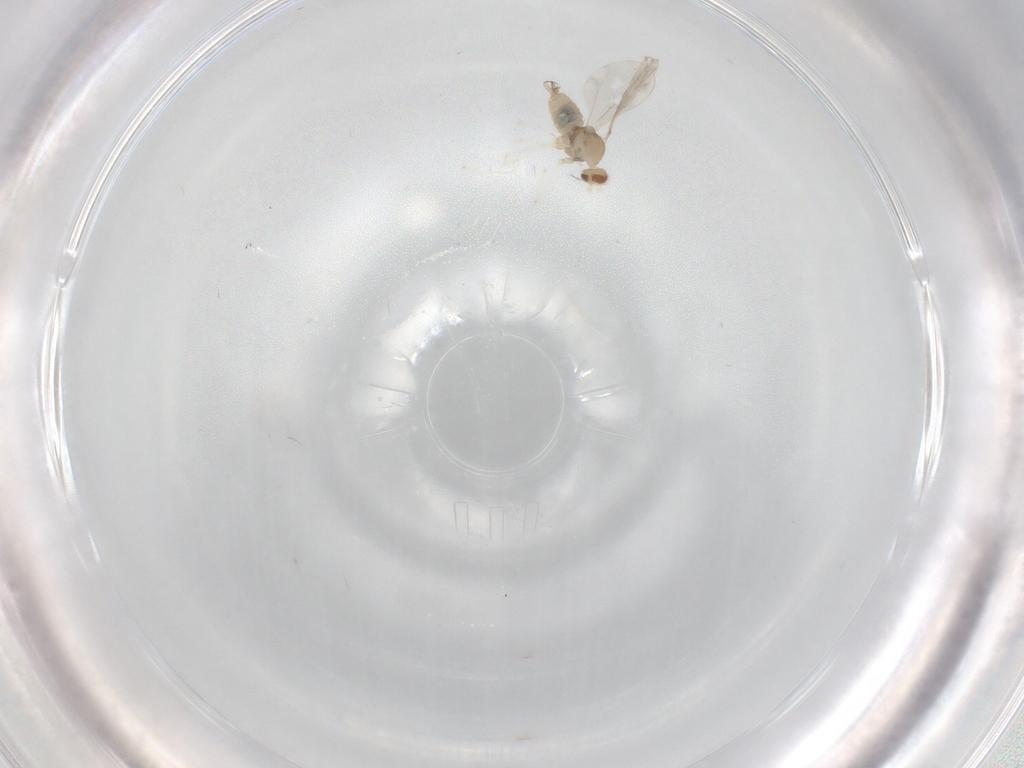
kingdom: Animalia
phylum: Arthropoda
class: Insecta
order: Diptera
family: Cecidomyiidae
